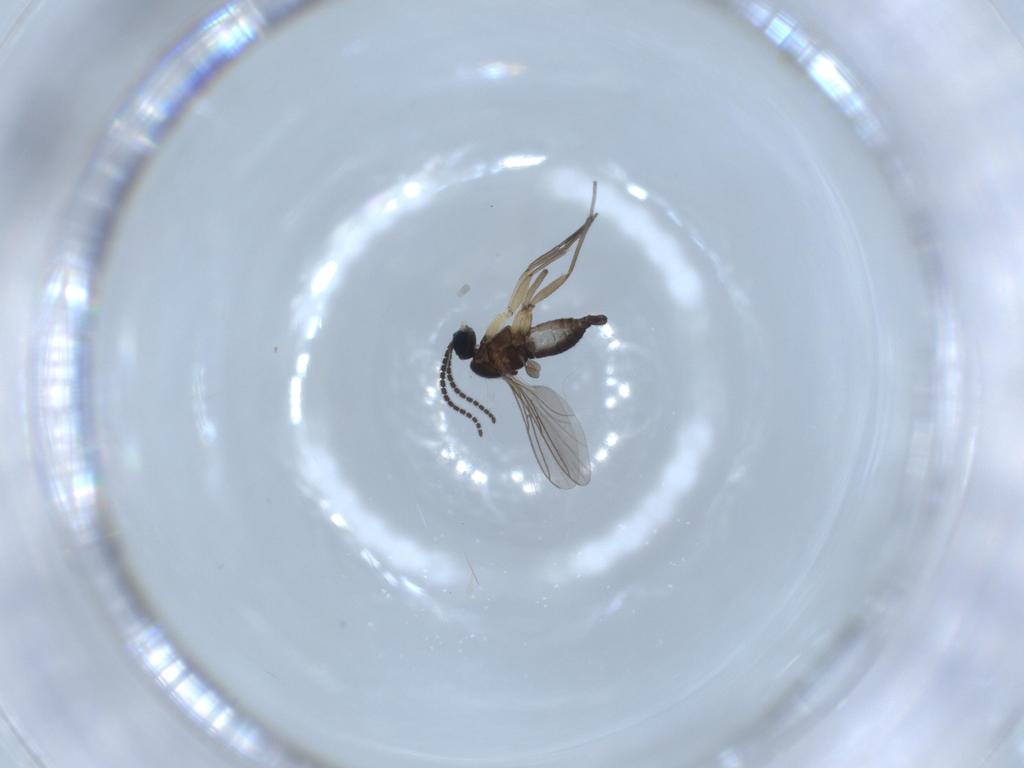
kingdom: Animalia
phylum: Arthropoda
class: Insecta
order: Diptera
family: Sciaridae
